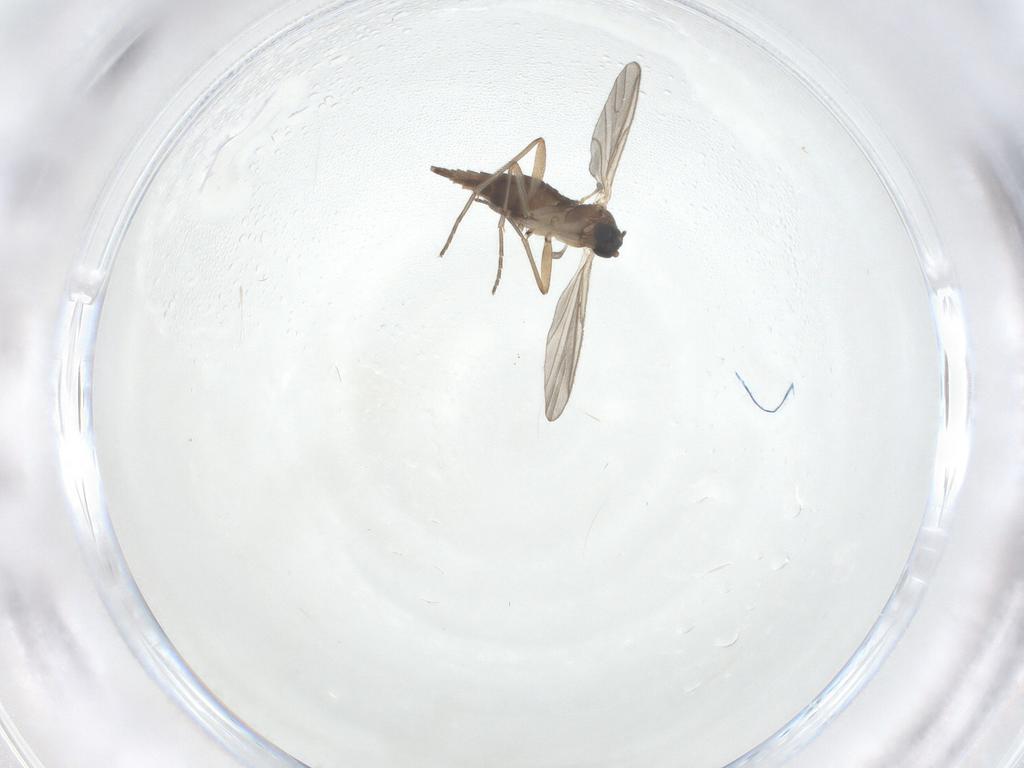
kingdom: Animalia
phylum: Arthropoda
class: Insecta
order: Diptera
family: Sciaridae
